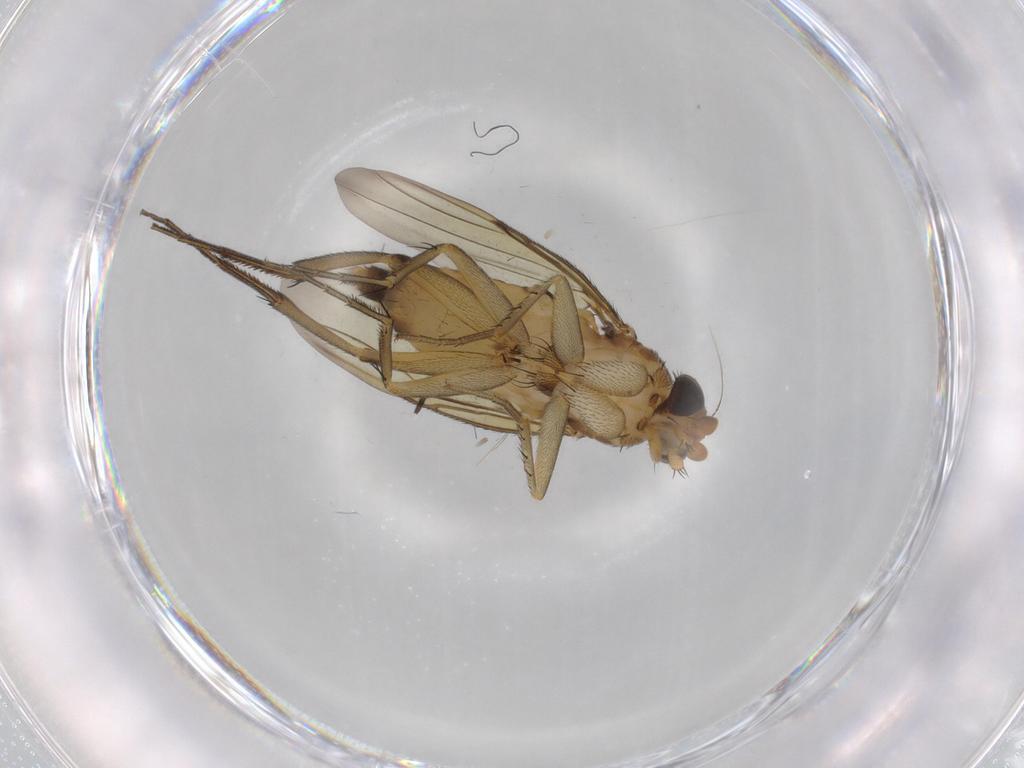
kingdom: Animalia
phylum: Arthropoda
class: Insecta
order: Diptera
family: Phoridae
